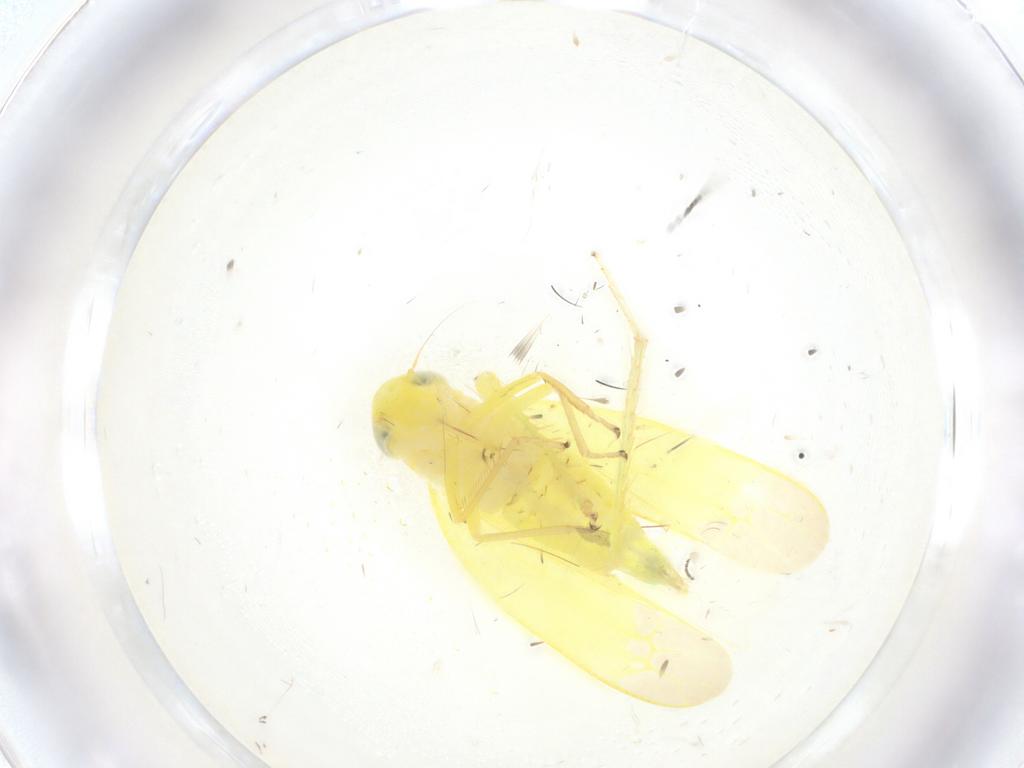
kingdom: Animalia
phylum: Arthropoda
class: Insecta
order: Hemiptera
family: Cicadellidae
